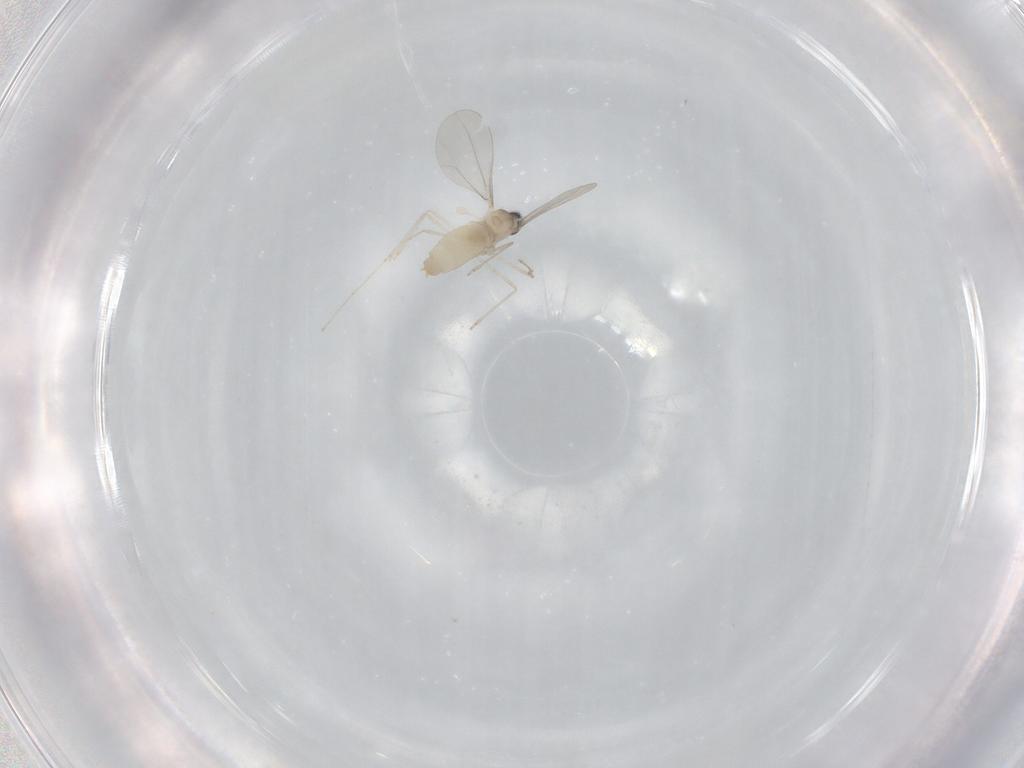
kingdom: Animalia
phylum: Arthropoda
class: Insecta
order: Diptera
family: Cecidomyiidae
